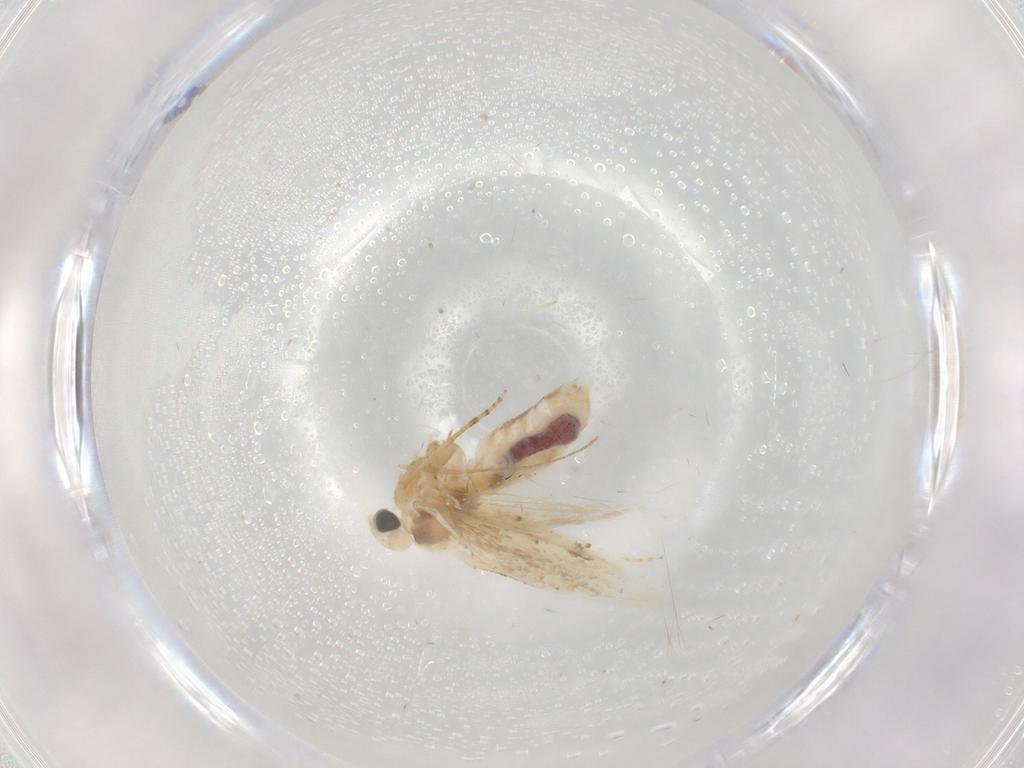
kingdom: Animalia
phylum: Arthropoda
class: Insecta
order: Lepidoptera
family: Bucculatricidae
